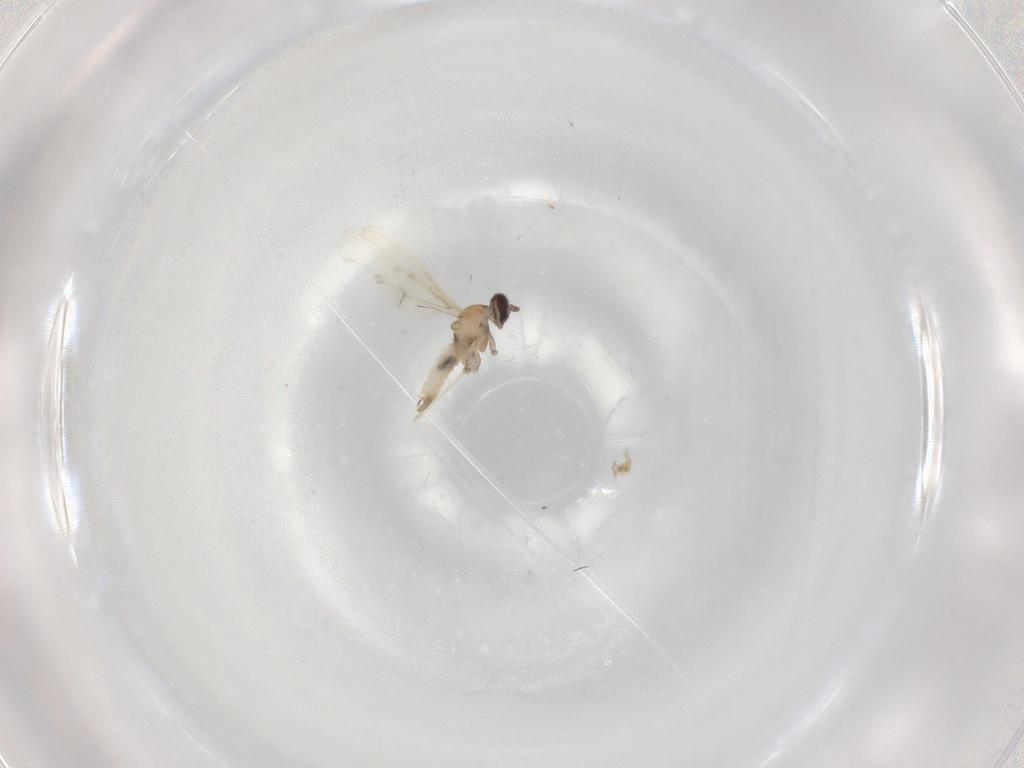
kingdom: Animalia
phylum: Arthropoda
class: Insecta
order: Diptera
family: Cecidomyiidae
